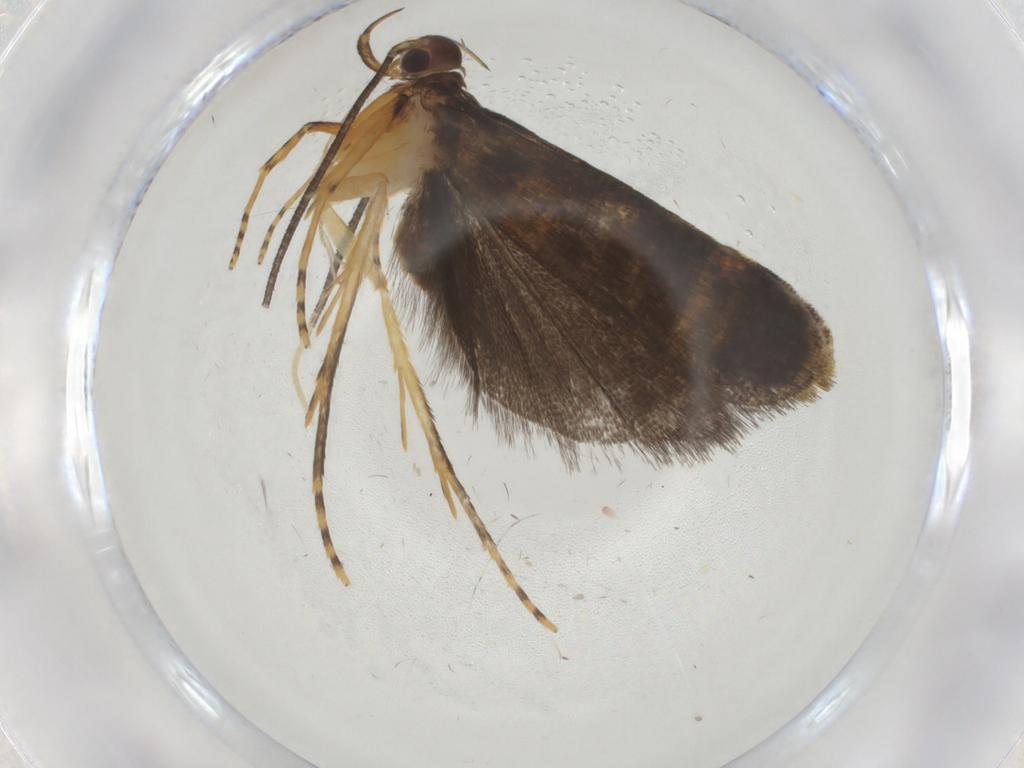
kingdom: Animalia
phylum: Arthropoda
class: Insecta
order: Lepidoptera
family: Cosmopterigidae
